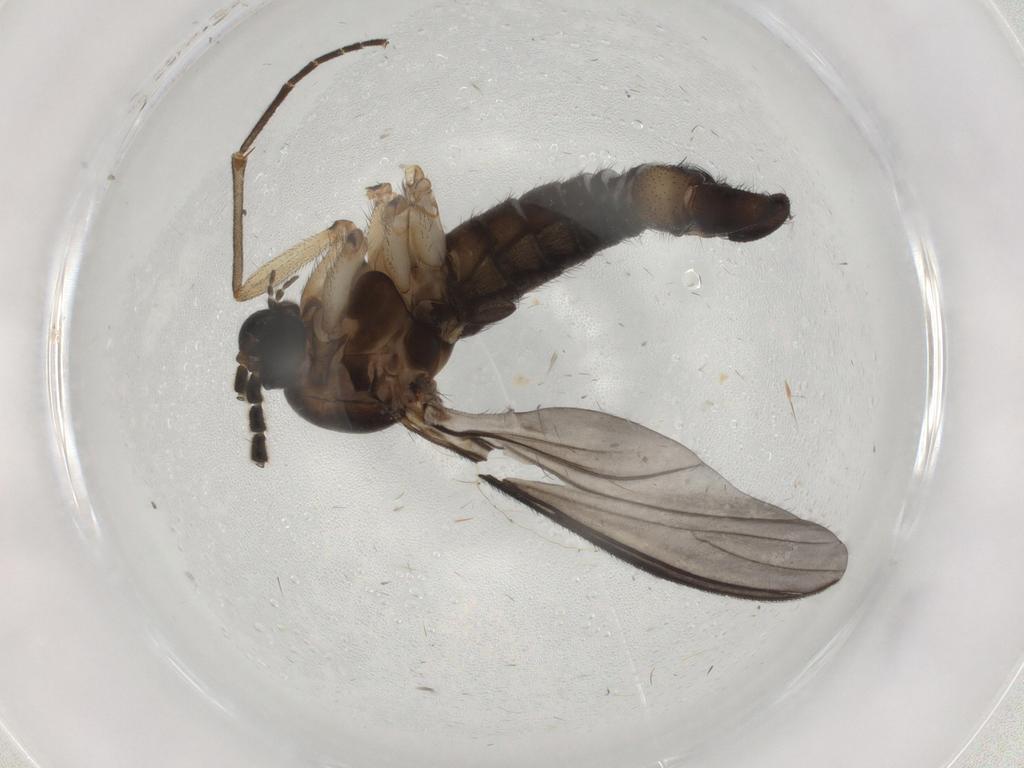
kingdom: Animalia
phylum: Arthropoda
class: Insecta
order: Diptera
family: Sciaridae
